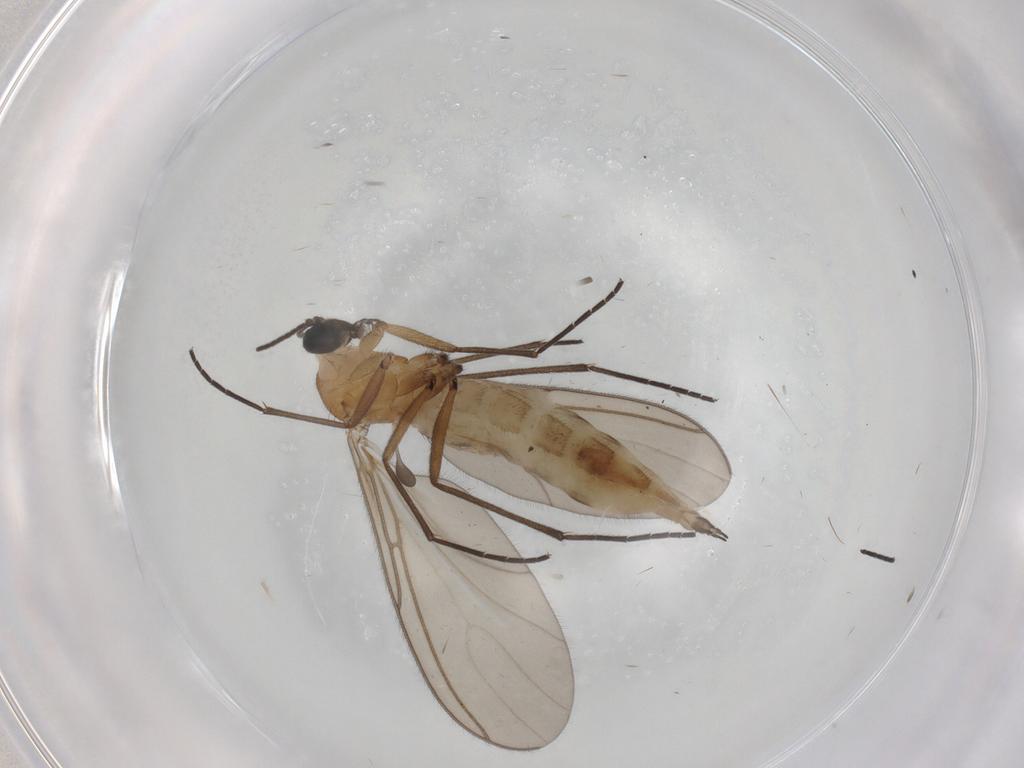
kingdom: Animalia
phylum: Arthropoda
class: Insecta
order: Diptera
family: Sciaridae
